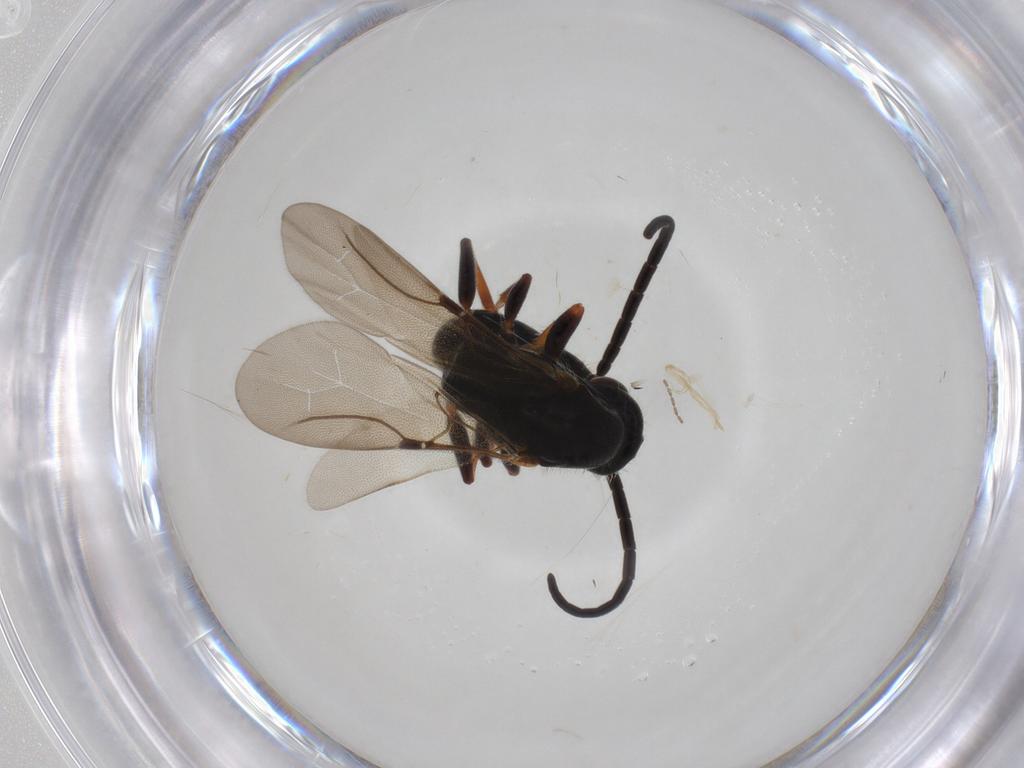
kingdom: Animalia
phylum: Arthropoda
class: Insecta
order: Hymenoptera
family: Bethylidae
